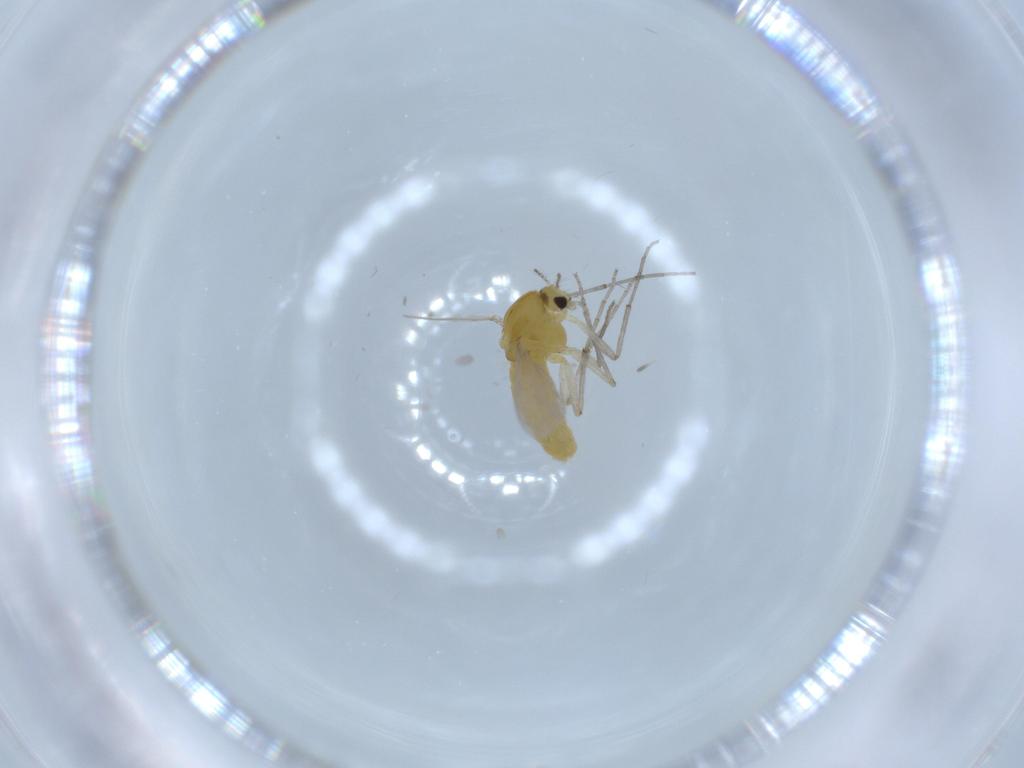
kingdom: Animalia
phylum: Arthropoda
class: Insecta
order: Diptera
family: Chironomidae
